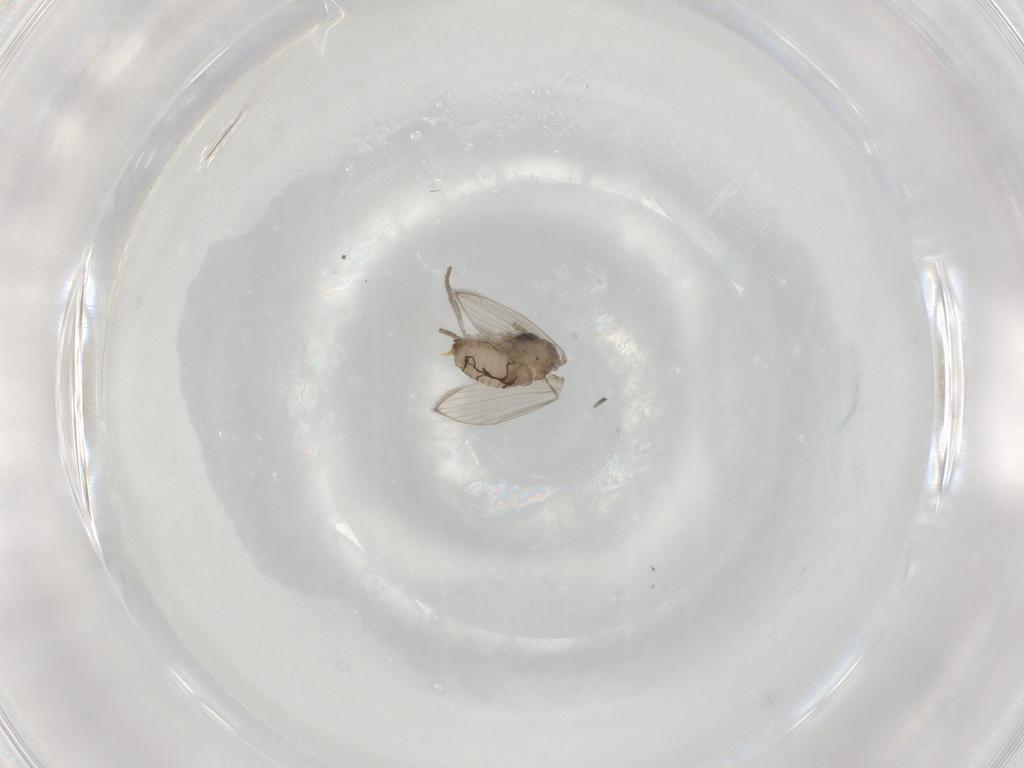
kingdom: Animalia
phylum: Arthropoda
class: Insecta
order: Diptera
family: Psychodidae
